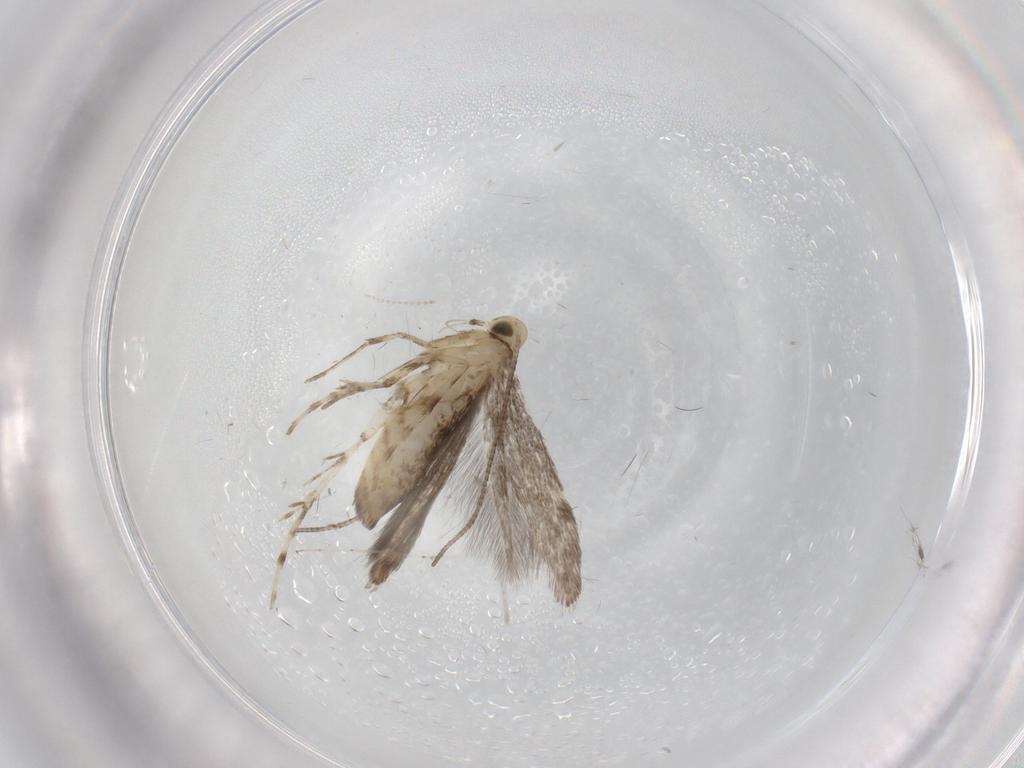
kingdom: Animalia
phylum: Arthropoda
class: Insecta
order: Lepidoptera
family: Gracillariidae
